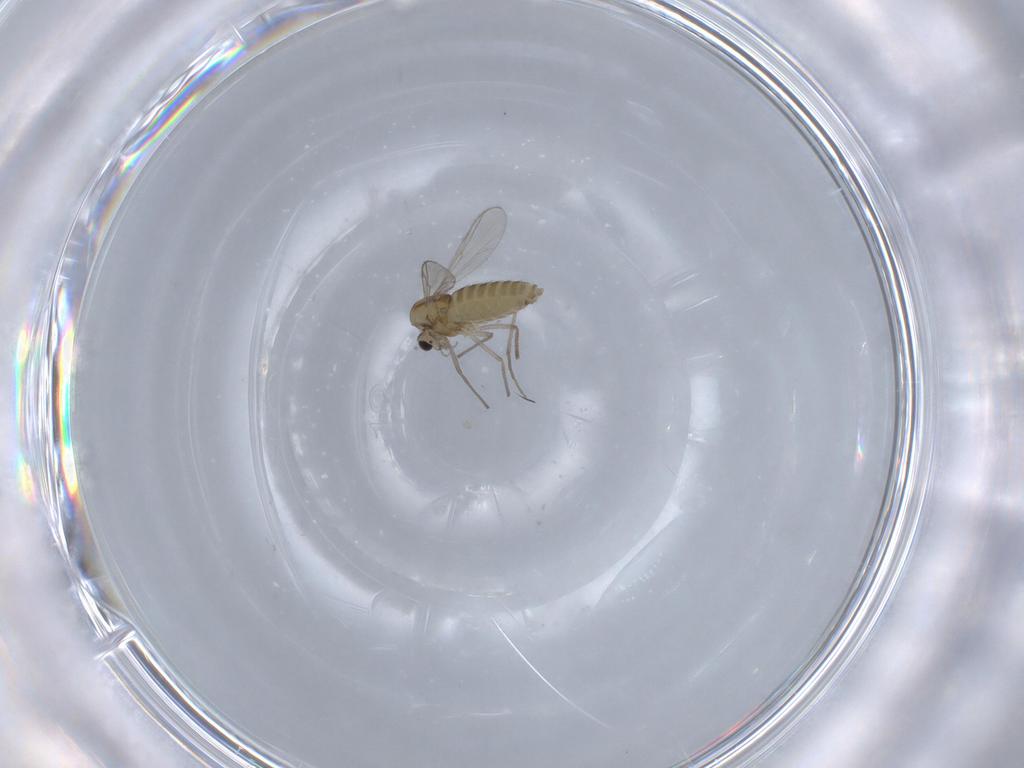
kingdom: Animalia
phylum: Arthropoda
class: Insecta
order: Diptera
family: Chironomidae
